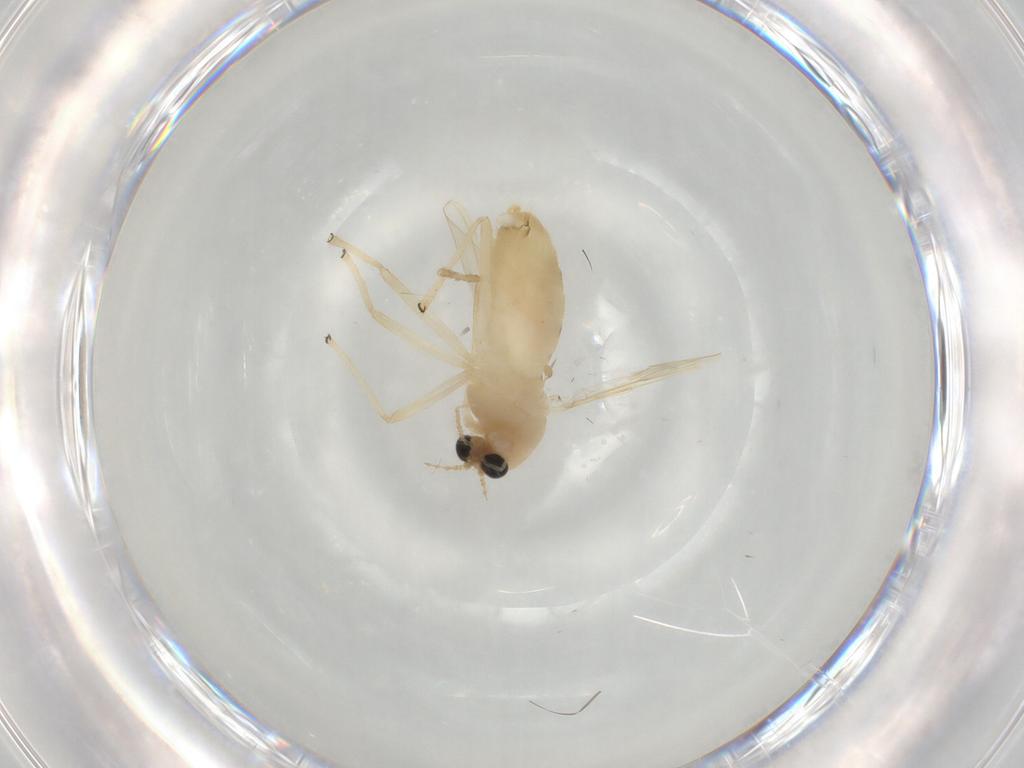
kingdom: Animalia
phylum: Arthropoda
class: Insecta
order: Diptera
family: Chironomidae
